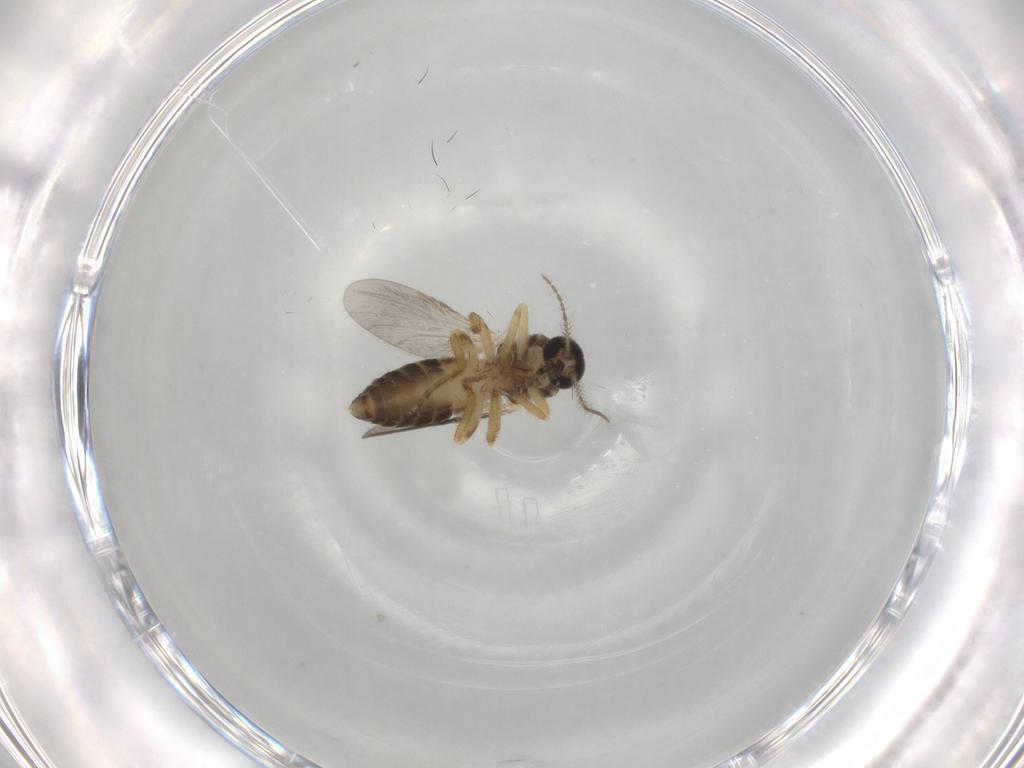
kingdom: Animalia
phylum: Arthropoda
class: Insecta
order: Diptera
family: Ceratopogonidae
